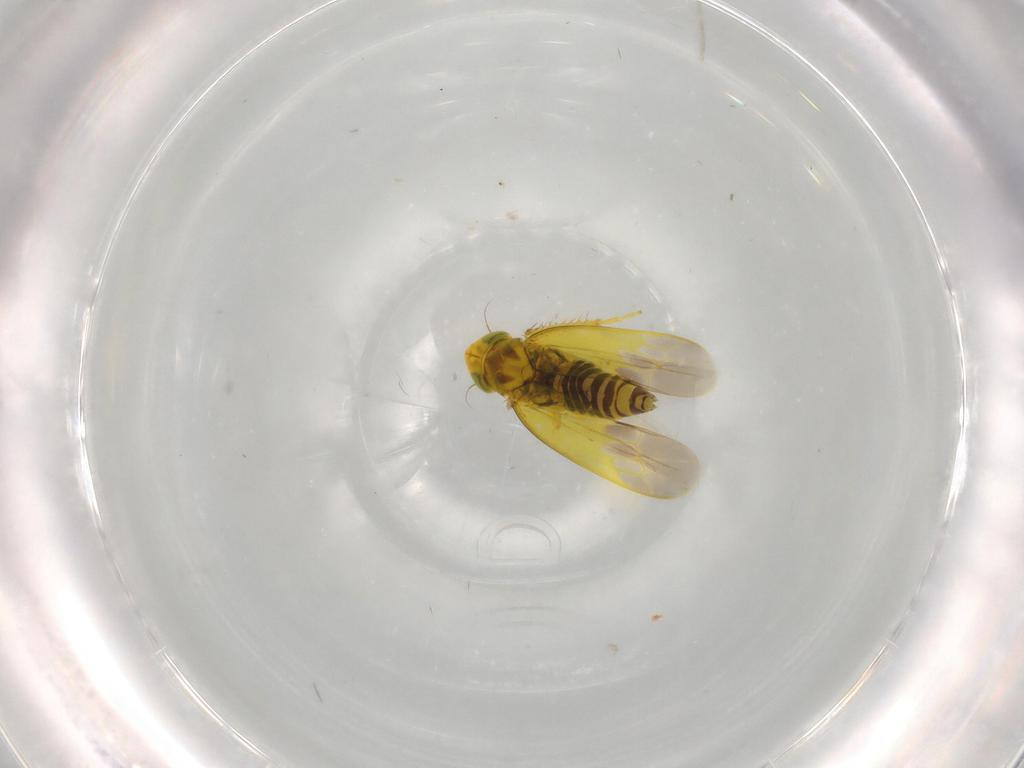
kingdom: Animalia
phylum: Arthropoda
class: Insecta
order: Hemiptera
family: Cicadellidae
